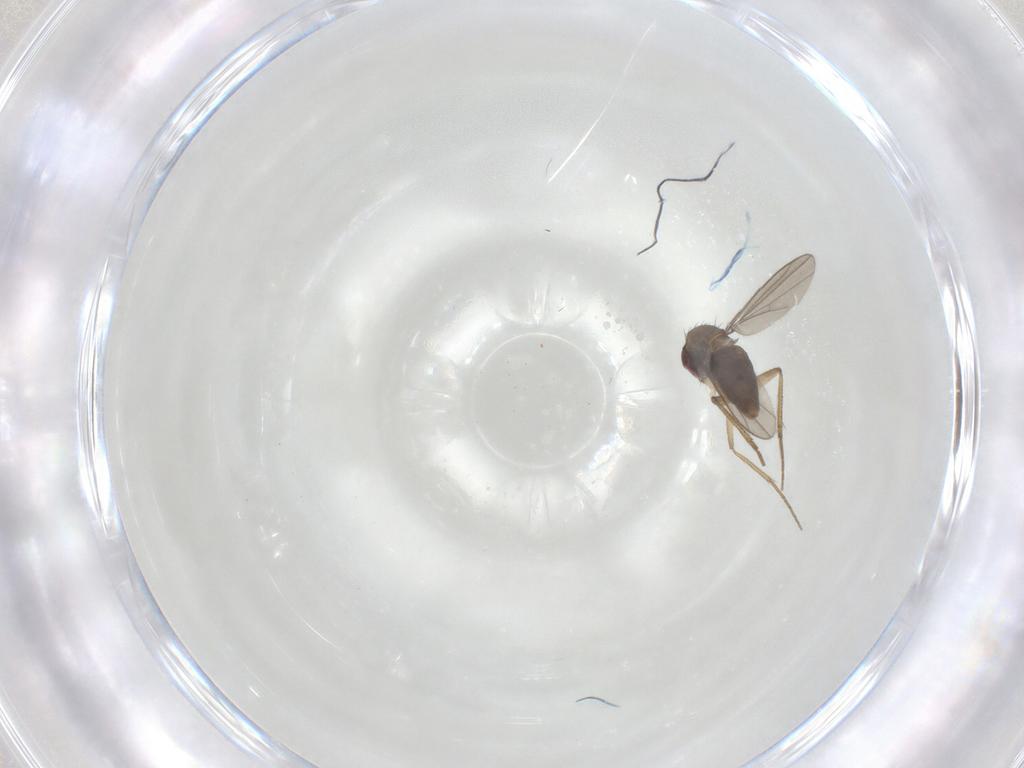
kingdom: Animalia
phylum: Arthropoda
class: Insecta
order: Diptera
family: Dolichopodidae
